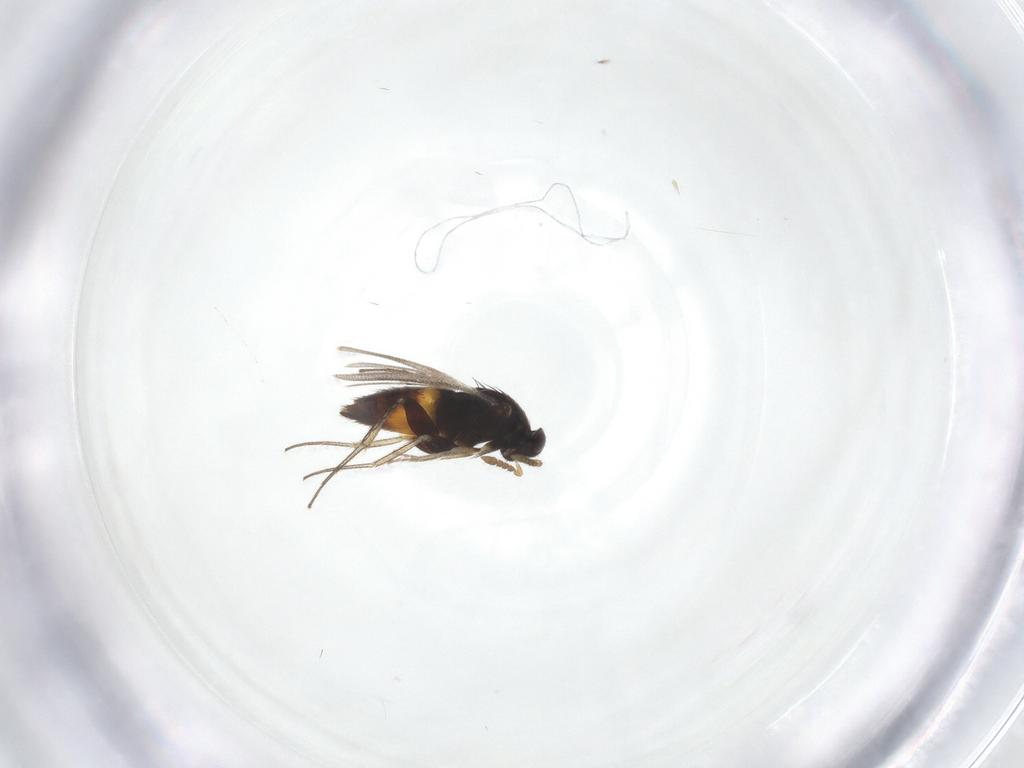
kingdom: Animalia
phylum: Arthropoda
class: Insecta
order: Hymenoptera
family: Eulophidae
